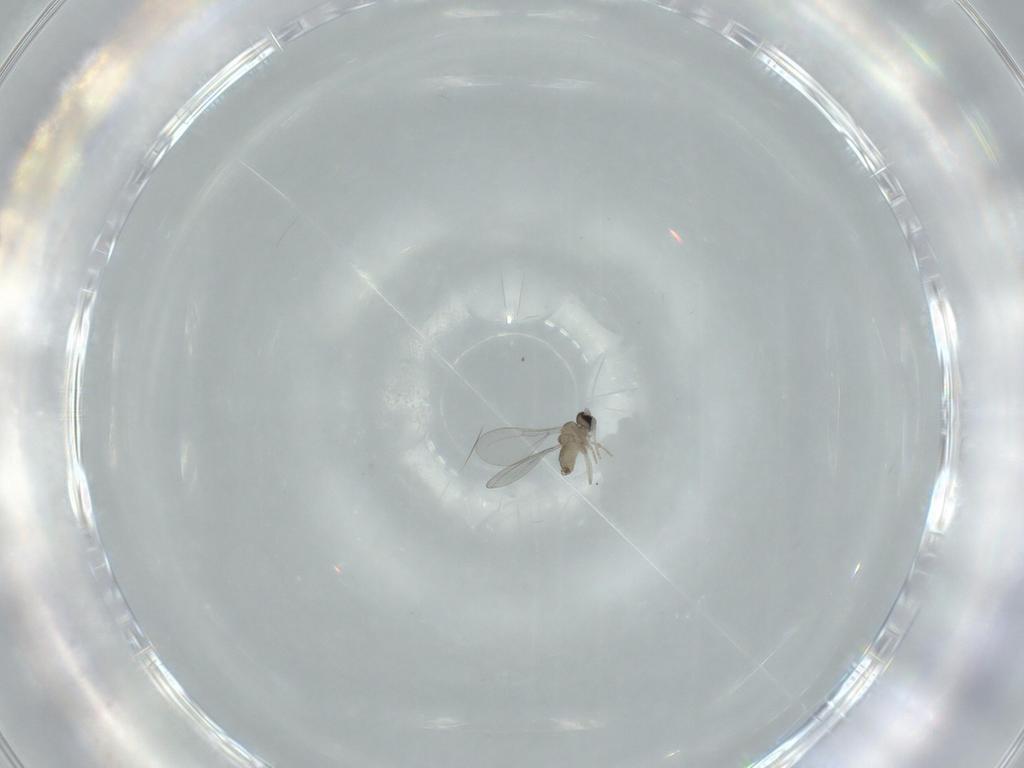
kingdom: Animalia
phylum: Arthropoda
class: Insecta
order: Diptera
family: Cecidomyiidae
